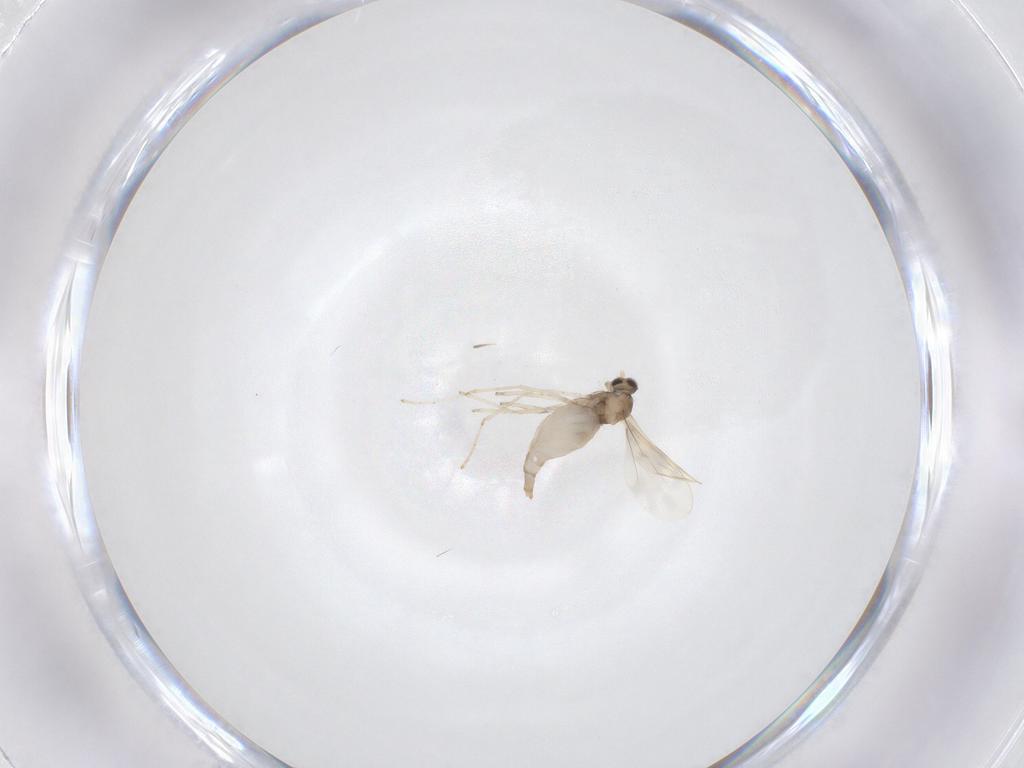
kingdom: Animalia
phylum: Arthropoda
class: Insecta
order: Diptera
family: Cecidomyiidae
